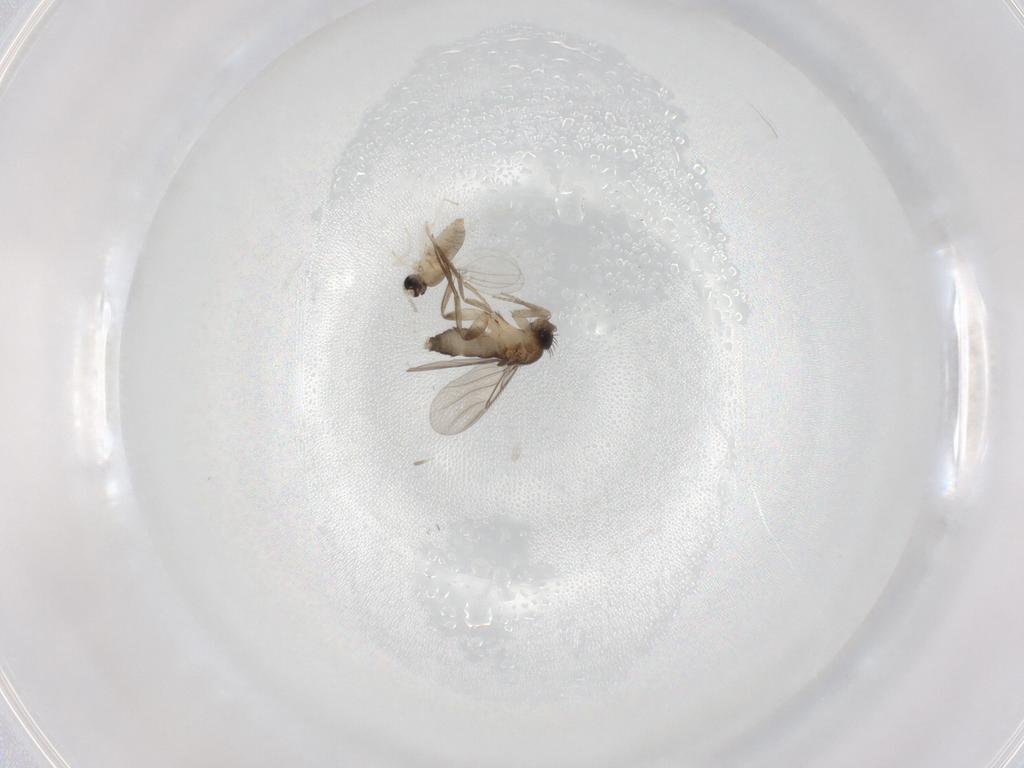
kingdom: Animalia
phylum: Arthropoda
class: Insecta
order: Diptera
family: Phoridae
